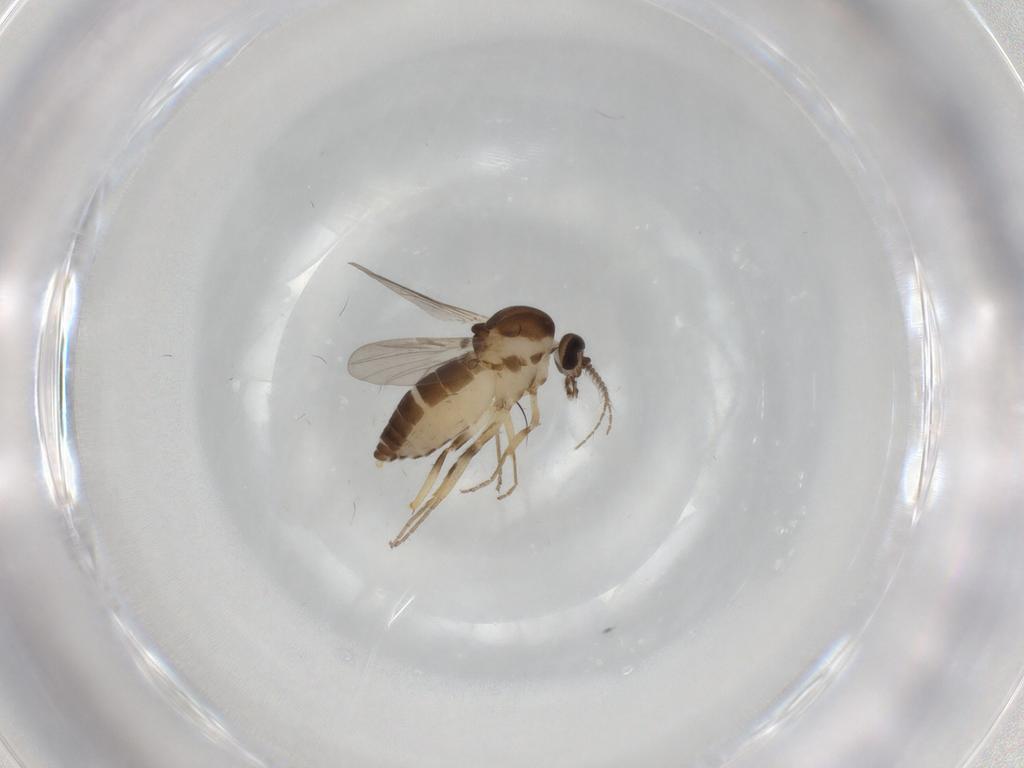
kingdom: Animalia
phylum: Arthropoda
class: Insecta
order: Diptera
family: Ceratopogonidae
